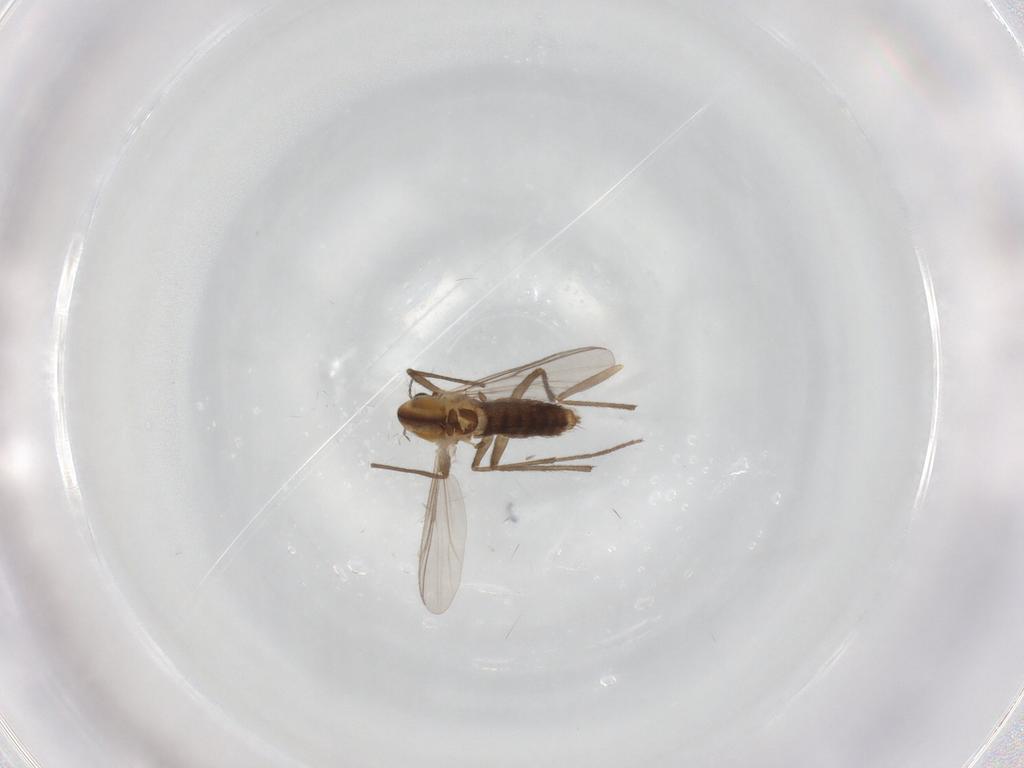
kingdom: Animalia
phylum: Arthropoda
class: Insecta
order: Diptera
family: Chironomidae
